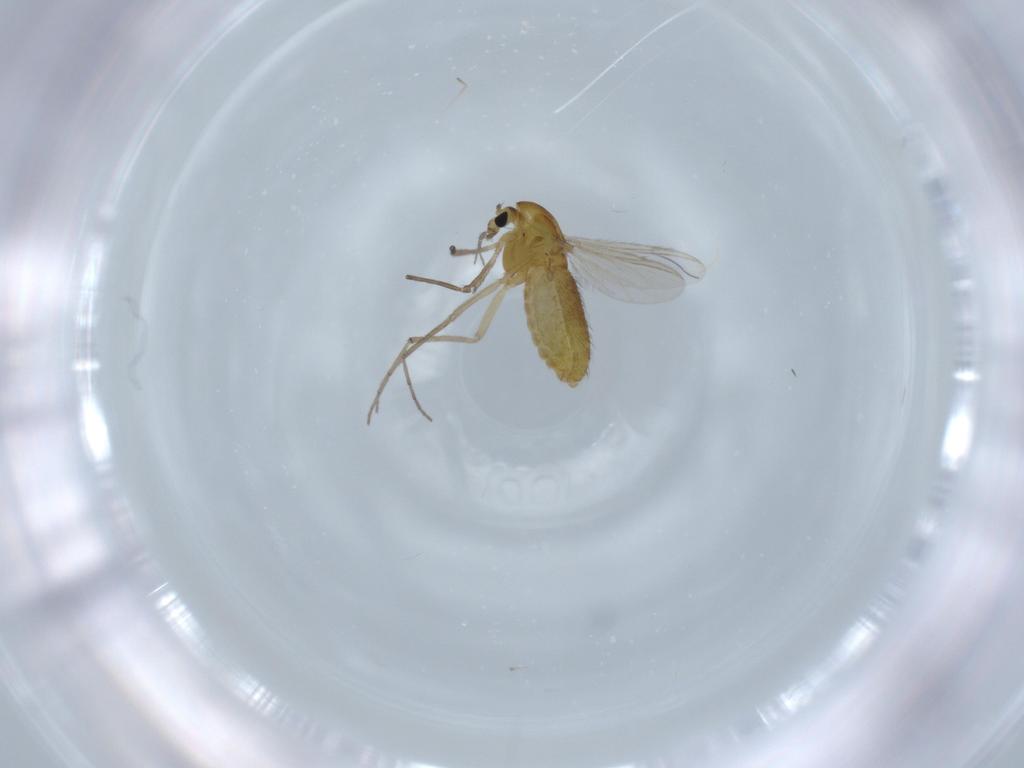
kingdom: Animalia
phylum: Arthropoda
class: Insecta
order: Diptera
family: Chironomidae
